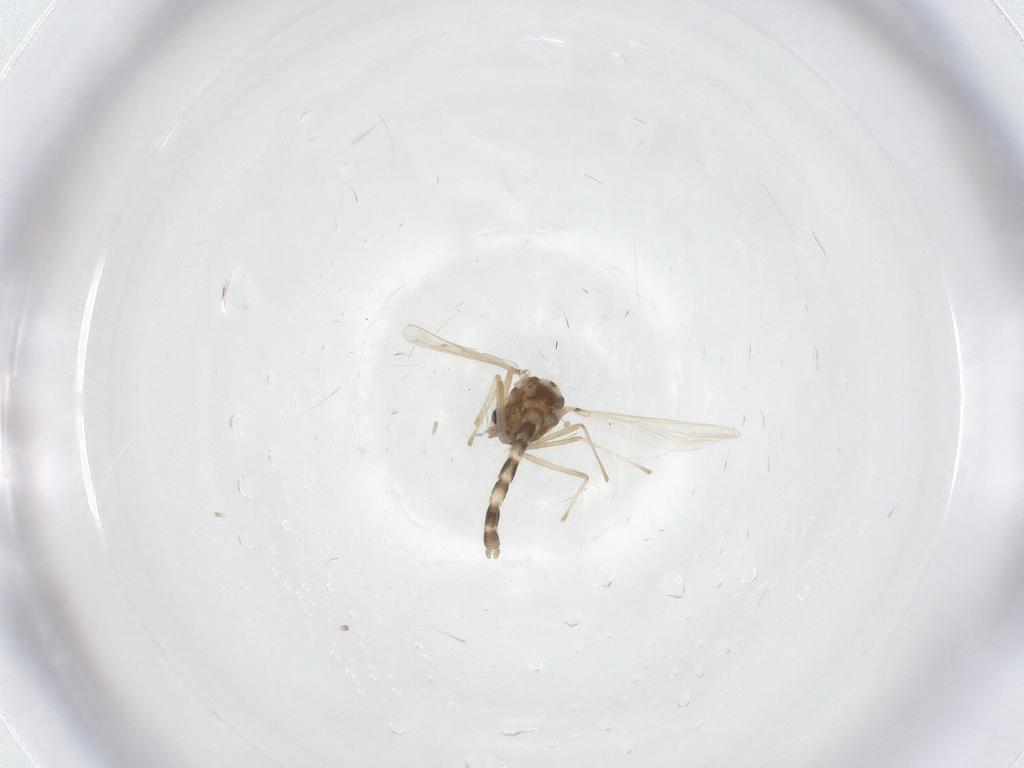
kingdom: Animalia
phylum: Arthropoda
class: Insecta
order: Diptera
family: Chironomidae
